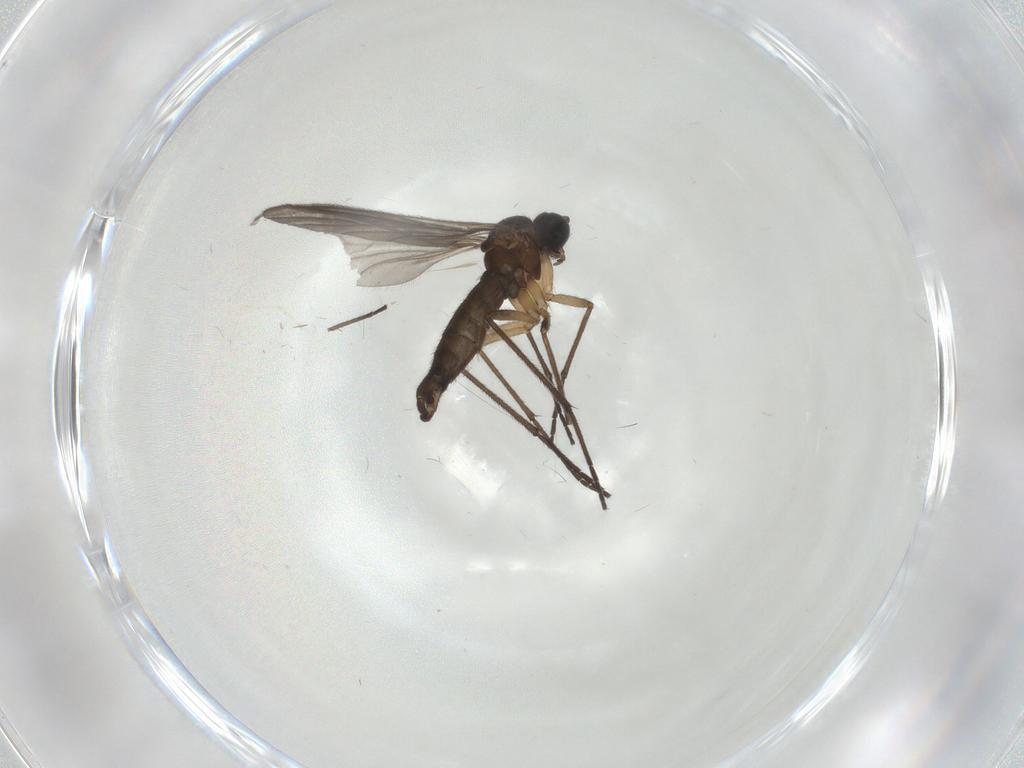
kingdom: Animalia
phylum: Arthropoda
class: Insecta
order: Diptera
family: Sciaridae
